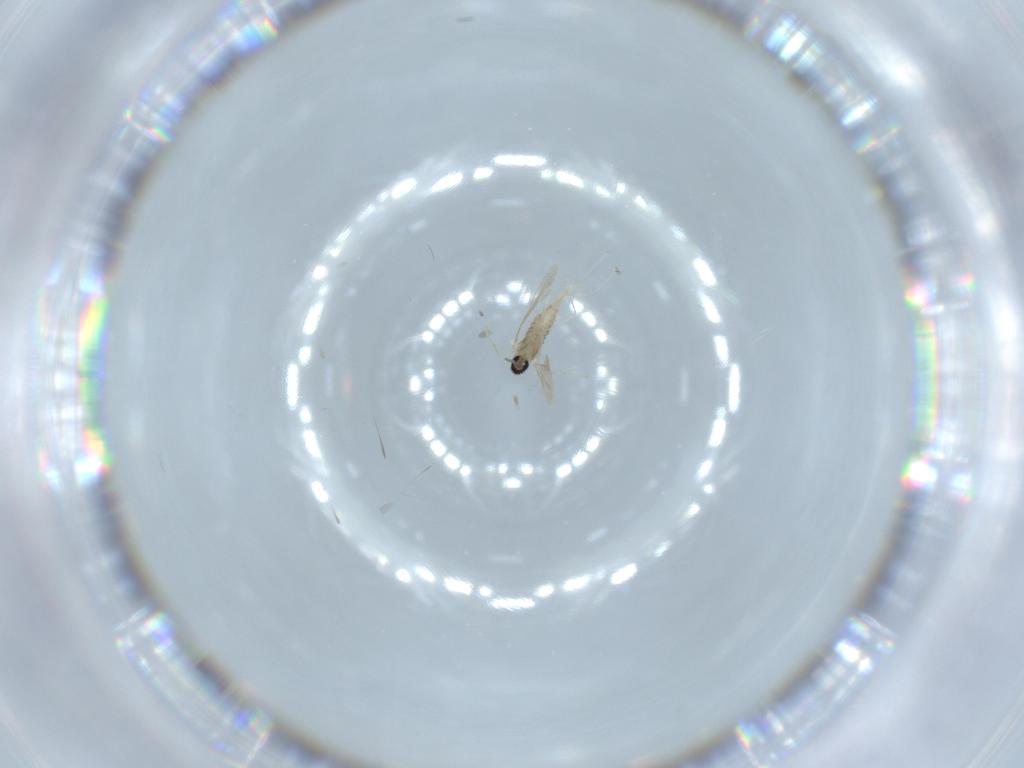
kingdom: Animalia
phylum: Arthropoda
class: Insecta
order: Diptera
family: Cecidomyiidae
